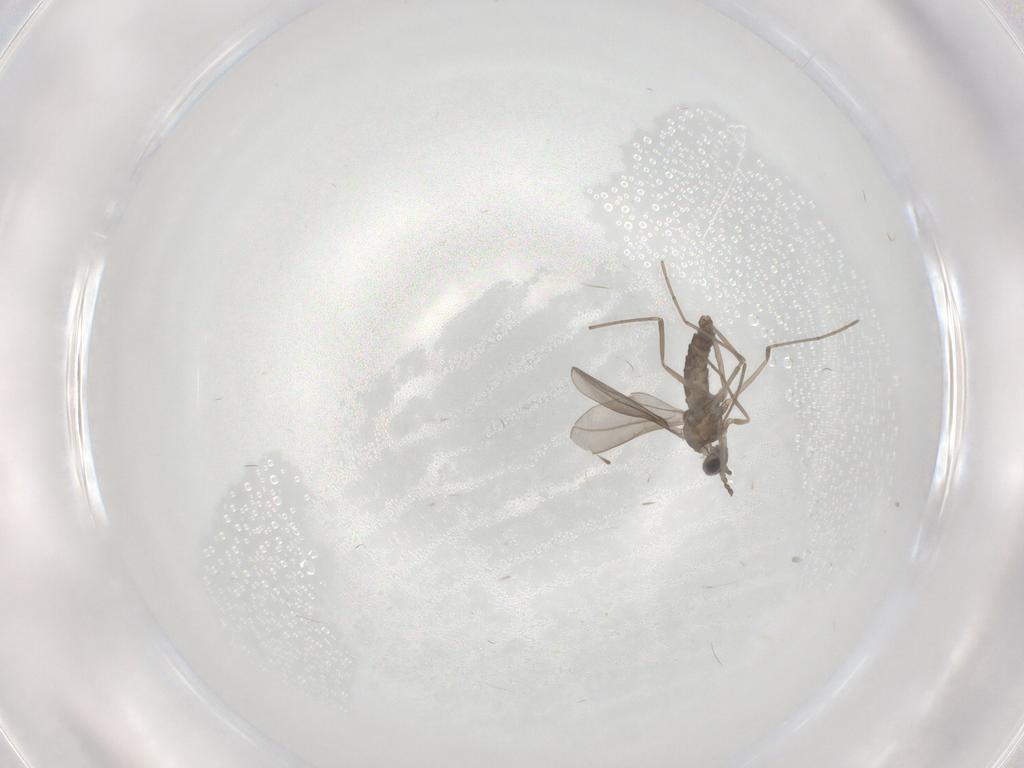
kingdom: Animalia
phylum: Arthropoda
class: Insecta
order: Diptera
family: Cecidomyiidae
